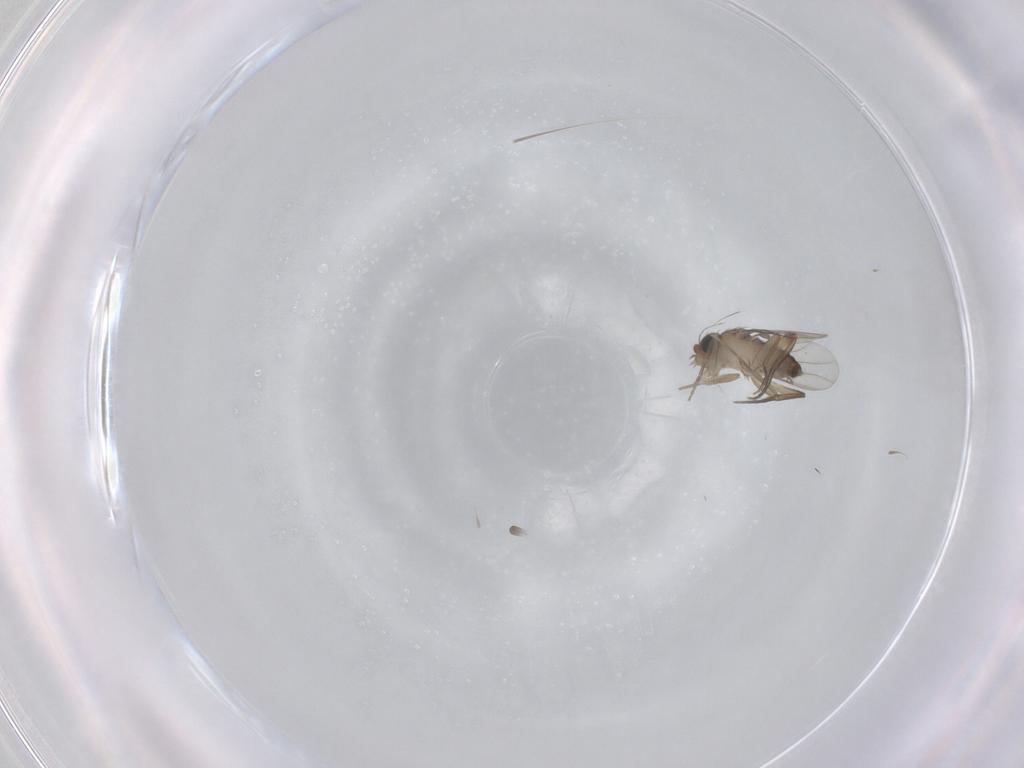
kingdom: Animalia
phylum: Arthropoda
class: Insecta
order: Diptera
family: Phoridae
